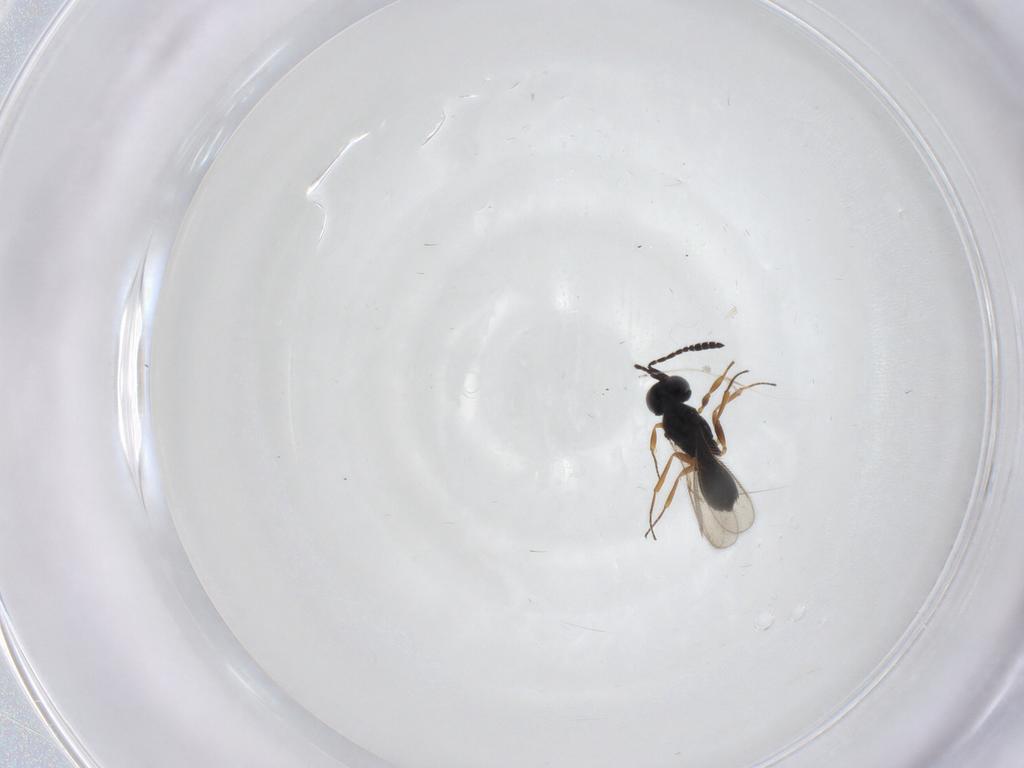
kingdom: Animalia
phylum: Arthropoda
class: Insecta
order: Hymenoptera
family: Scelionidae
